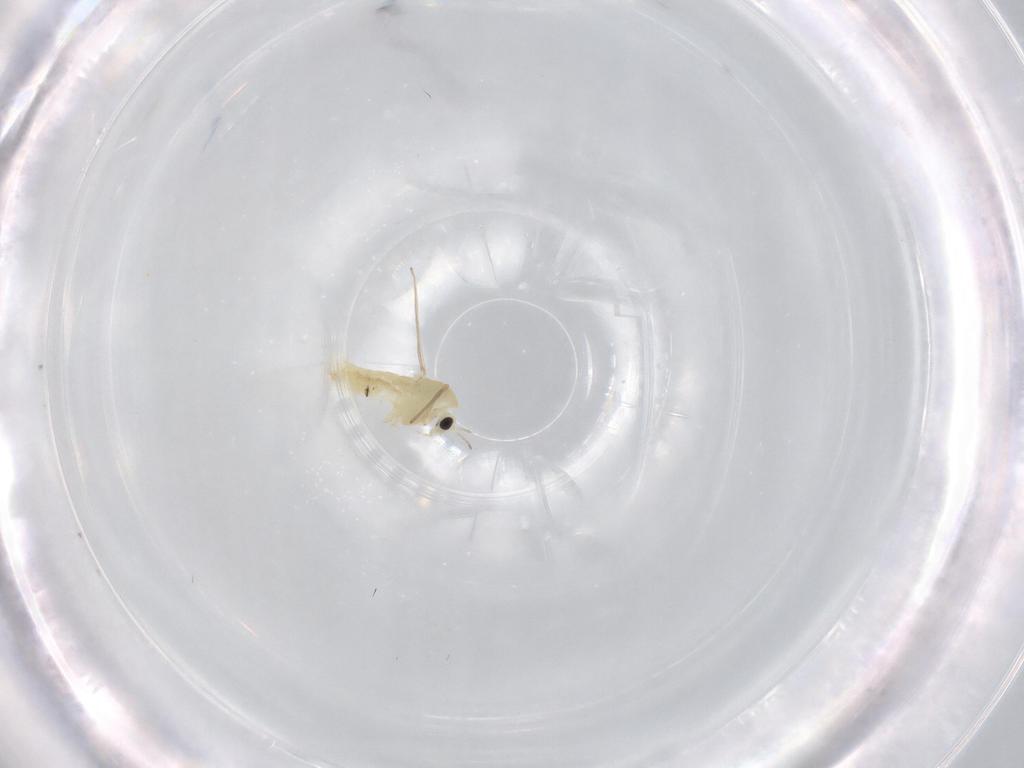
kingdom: Animalia
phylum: Arthropoda
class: Insecta
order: Diptera
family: Chironomidae
